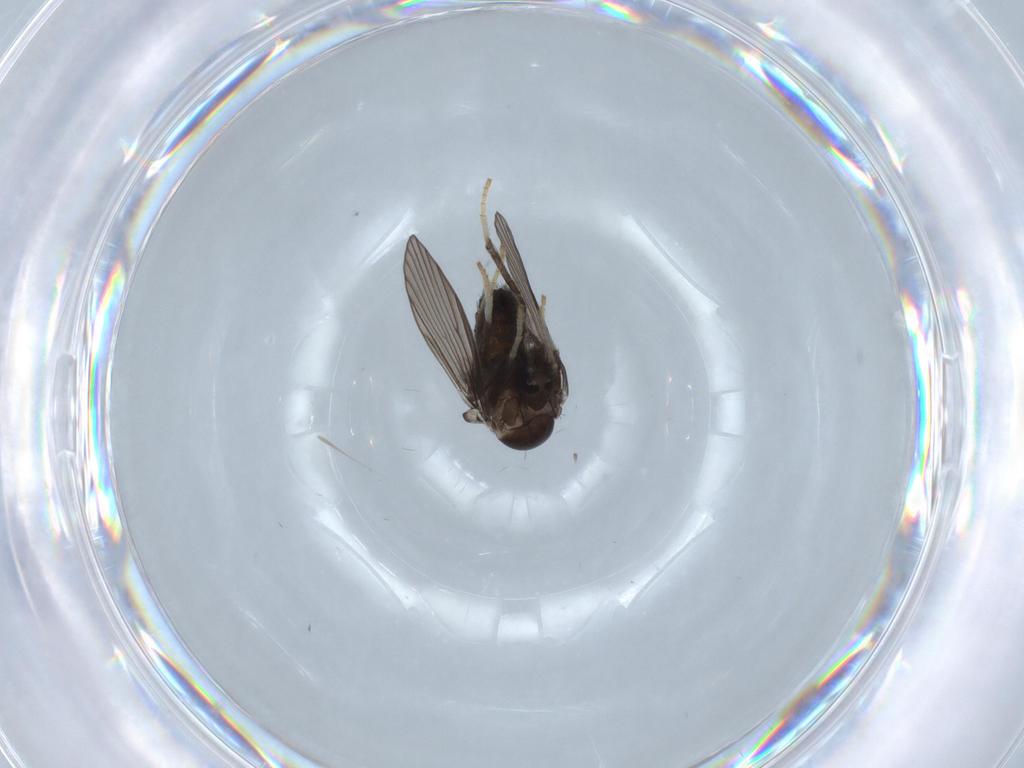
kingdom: Animalia
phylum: Arthropoda
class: Insecta
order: Diptera
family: Psychodidae
